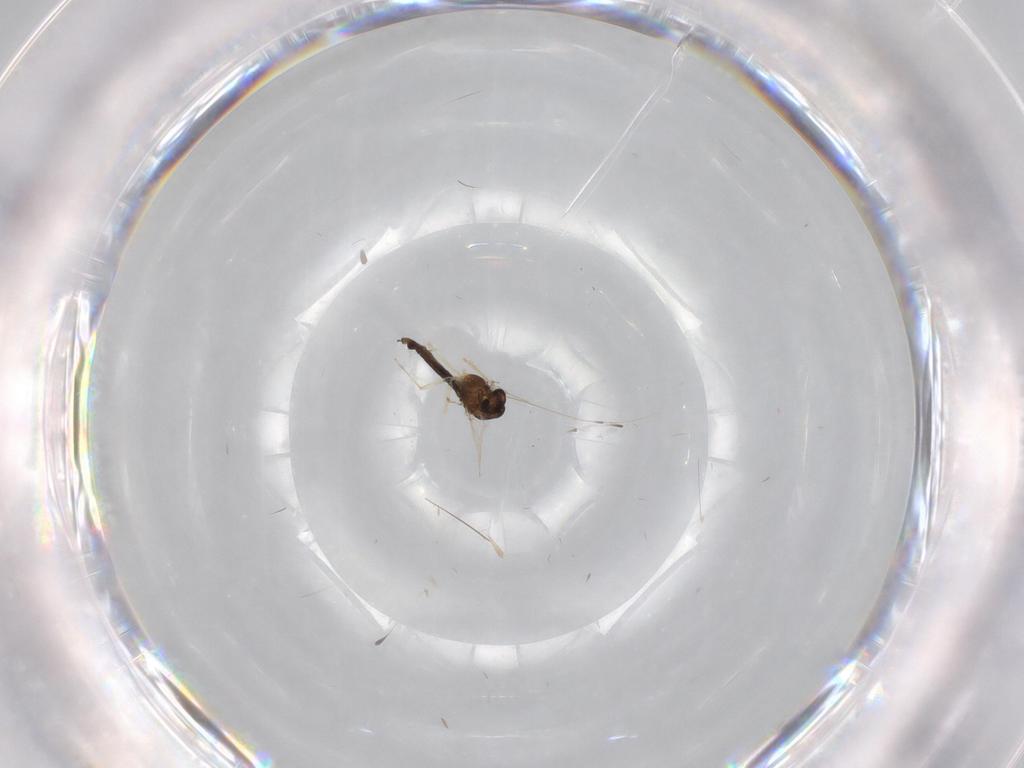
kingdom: Animalia
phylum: Arthropoda
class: Insecta
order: Diptera
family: Chironomidae
